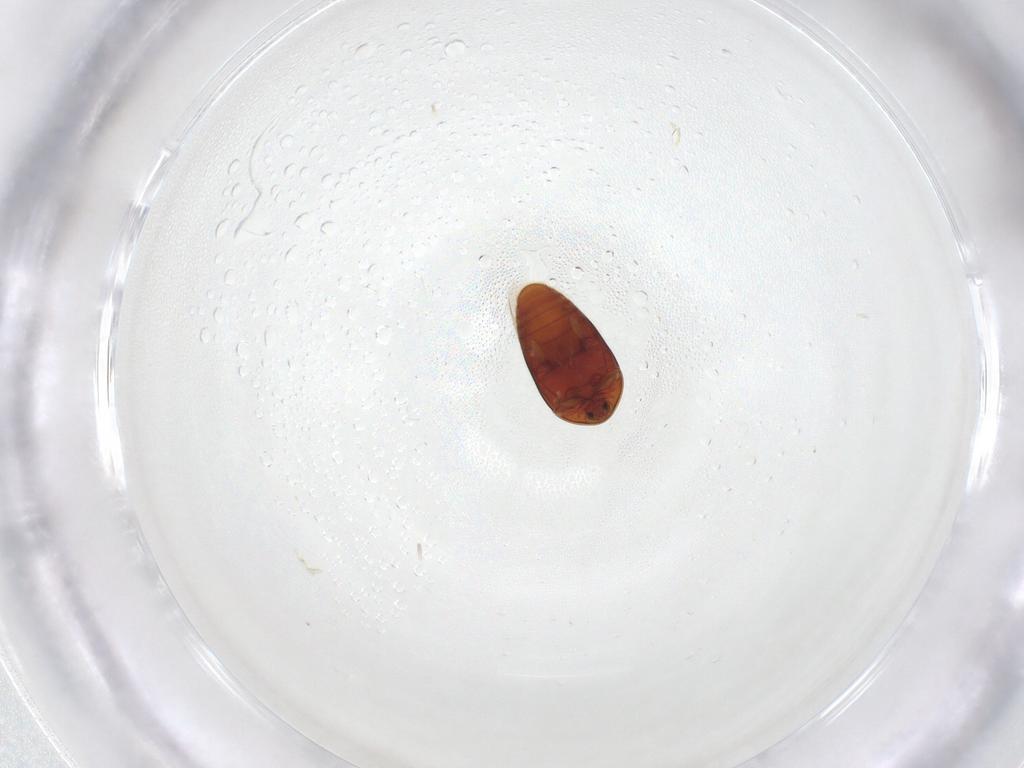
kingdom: Animalia
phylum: Arthropoda
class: Insecta
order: Coleoptera
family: Corylophidae
